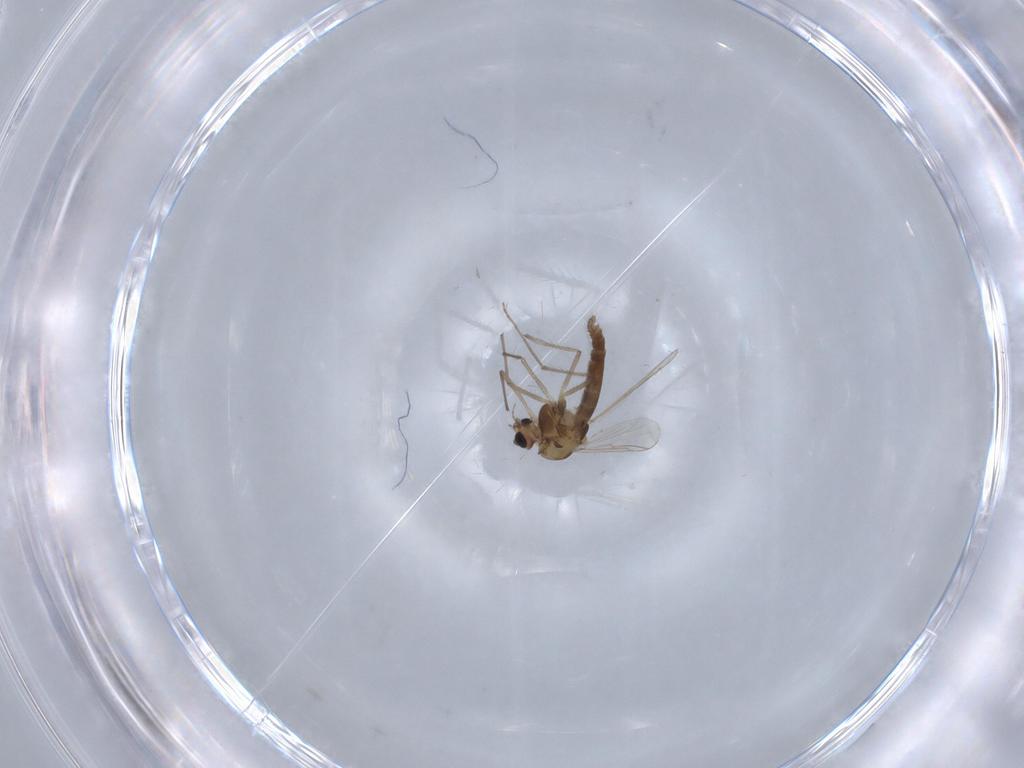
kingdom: Animalia
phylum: Arthropoda
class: Insecta
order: Diptera
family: Chironomidae
